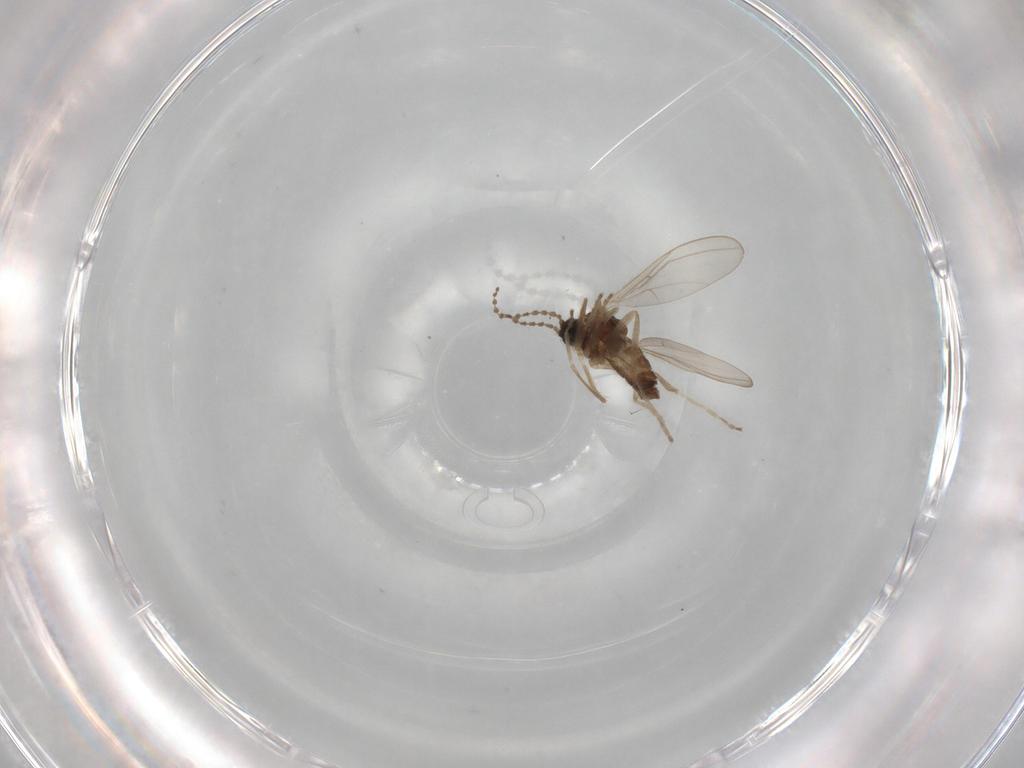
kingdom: Animalia
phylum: Arthropoda
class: Insecta
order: Diptera
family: Cecidomyiidae
